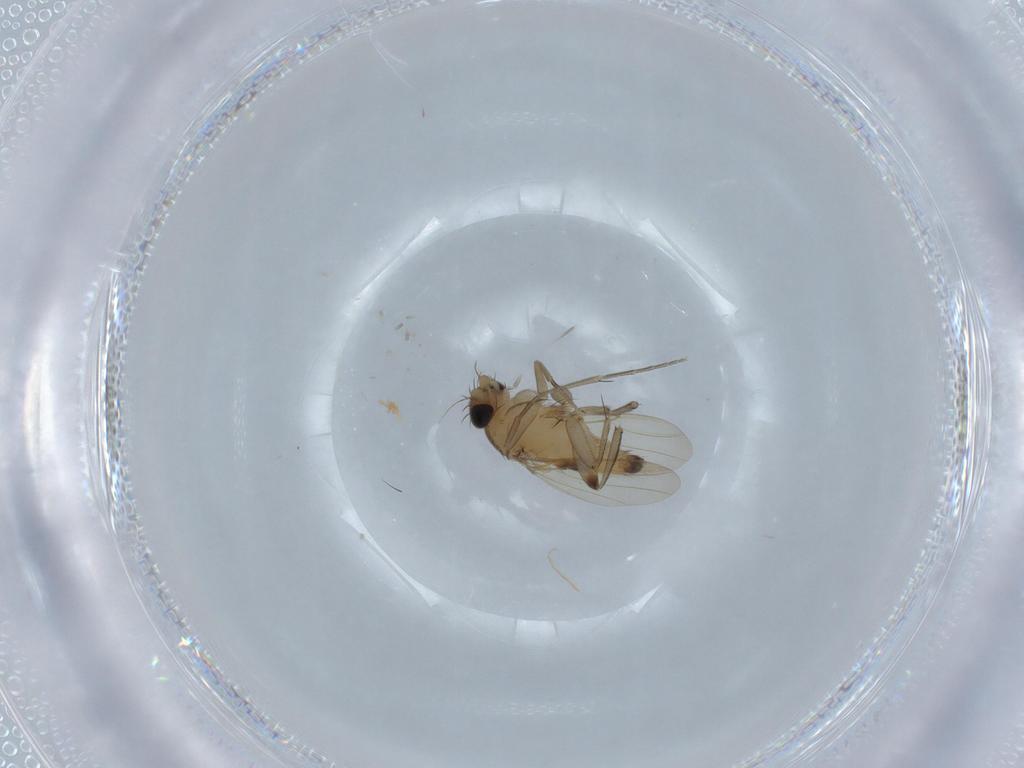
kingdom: Animalia
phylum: Arthropoda
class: Insecta
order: Diptera
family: Phoridae
